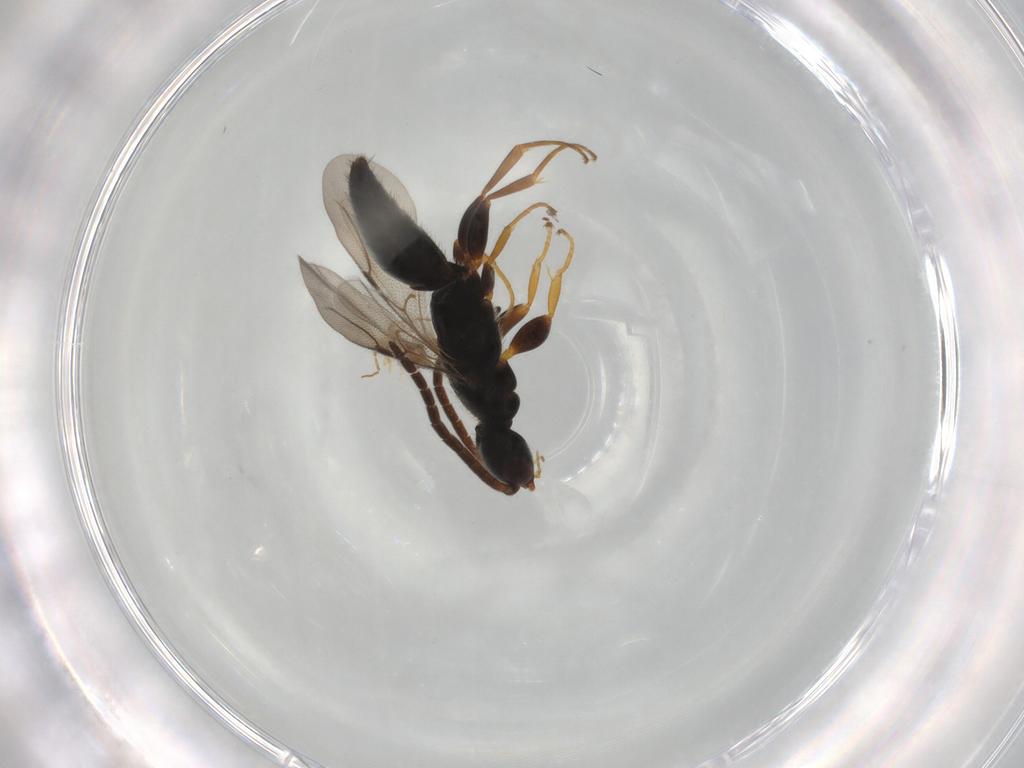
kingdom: Animalia
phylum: Arthropoda
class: Insecta
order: Hymenoptera
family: Bethylidae
